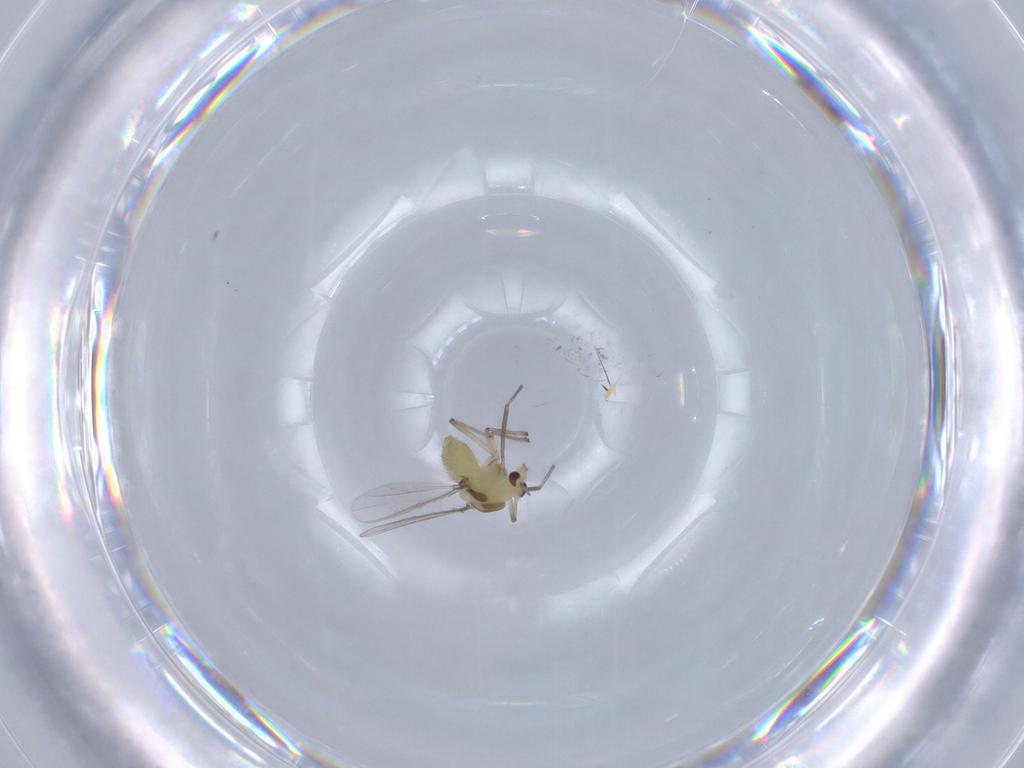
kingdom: Animalia
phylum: Arthropoda
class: Insecta
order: Diptera
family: Chironomidae
